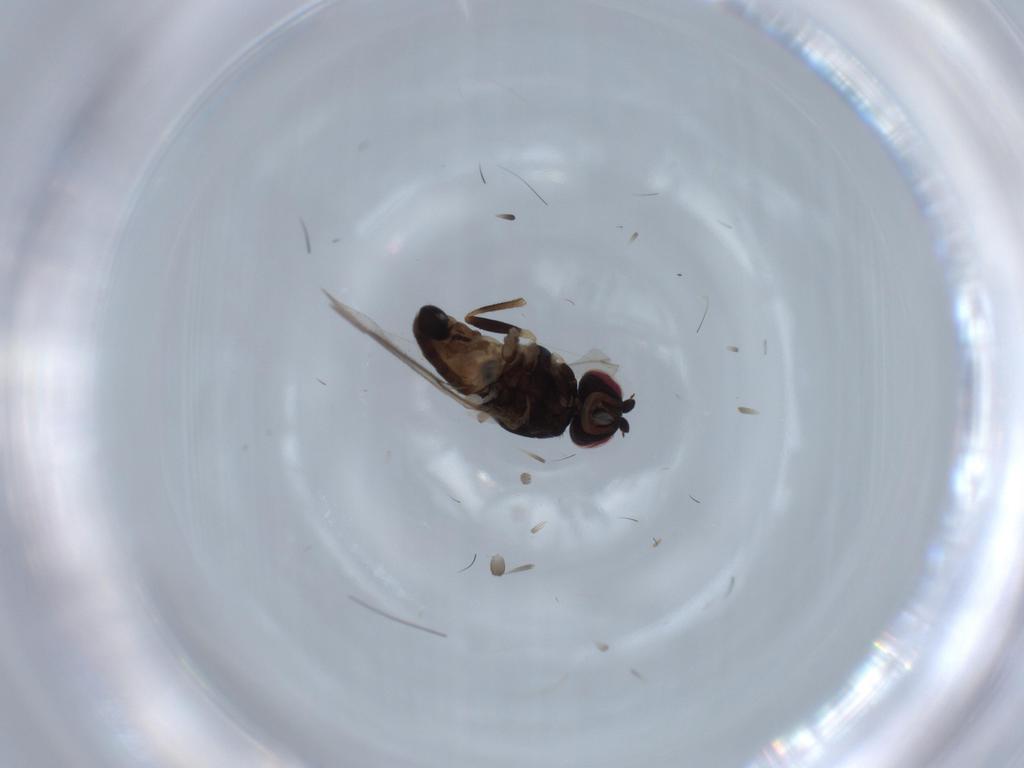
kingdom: Animalia
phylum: Arthropoda
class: Insecta
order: Diptera
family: Chloropidae
